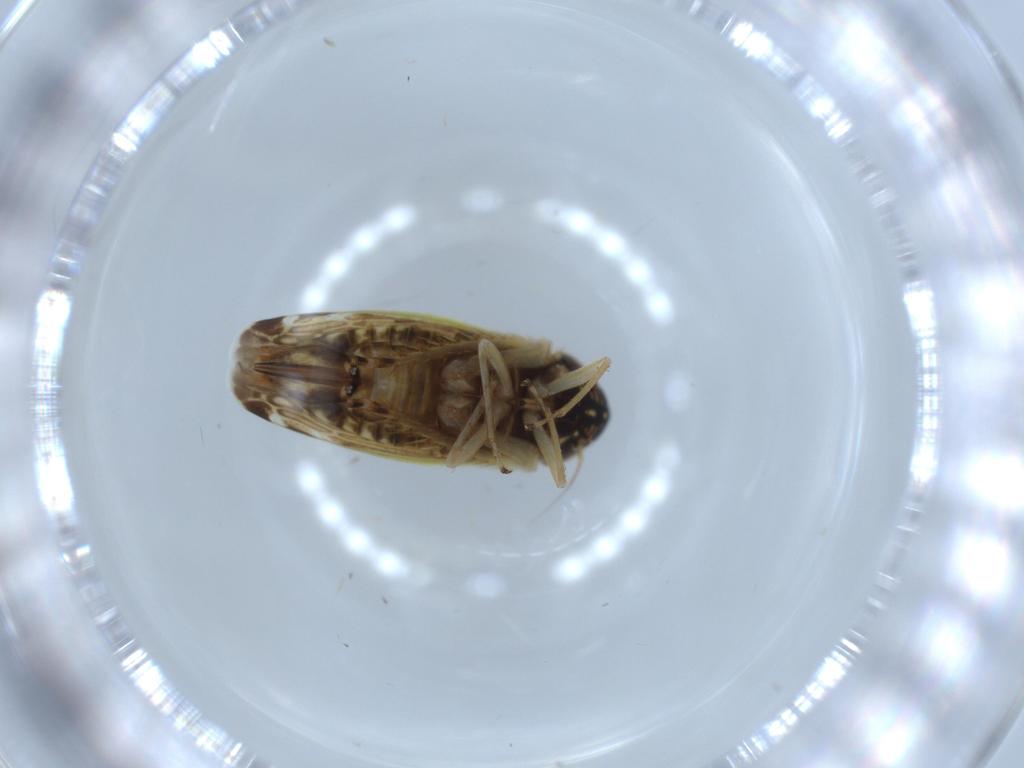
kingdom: Animalia
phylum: Arthropoda
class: Insecta
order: Hemiptera
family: Cicadellidae
